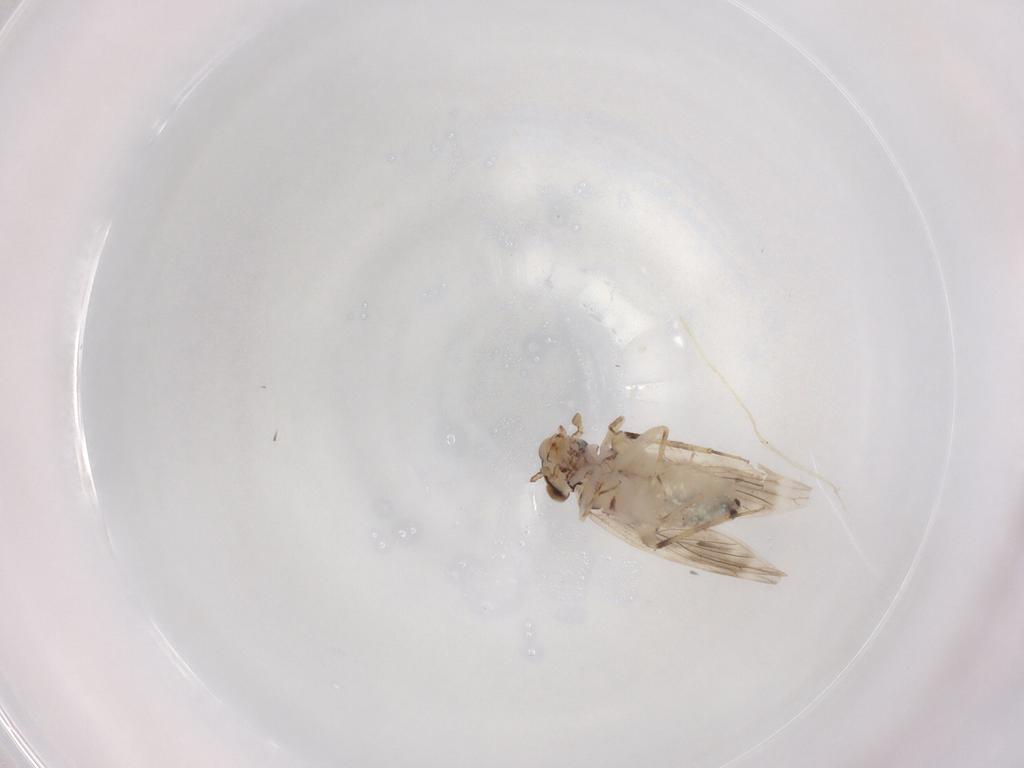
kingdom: Animalia
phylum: Arthropoda
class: Insecta
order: Psocodea
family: Lepidopsocidae
